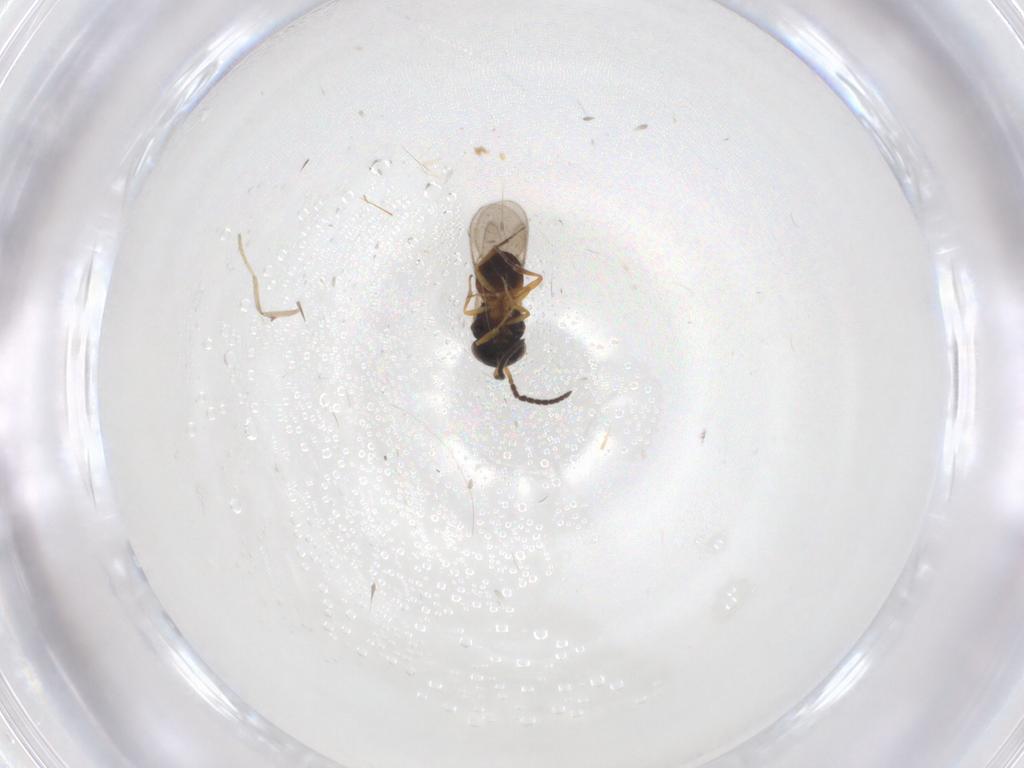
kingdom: Animalia
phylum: Arthropoda
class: Insecta
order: Hymenoptera
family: Scelionidae
